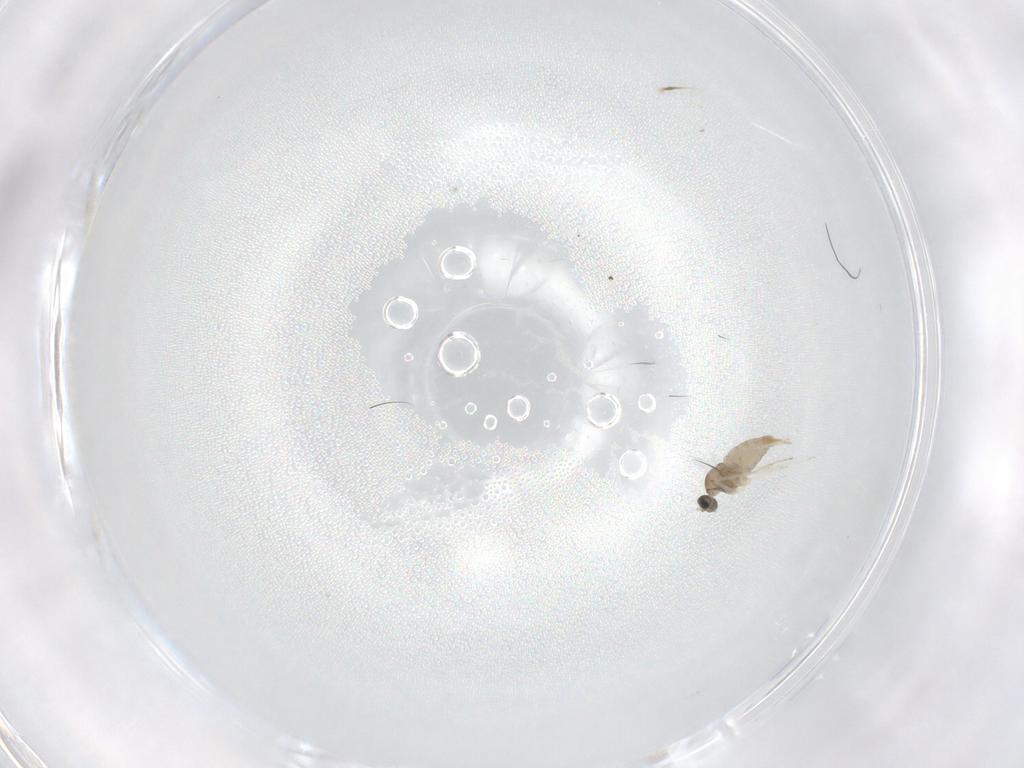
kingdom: Animalia
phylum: Arthropoda
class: Insecta
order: Diptera
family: Cecidomyiidae
